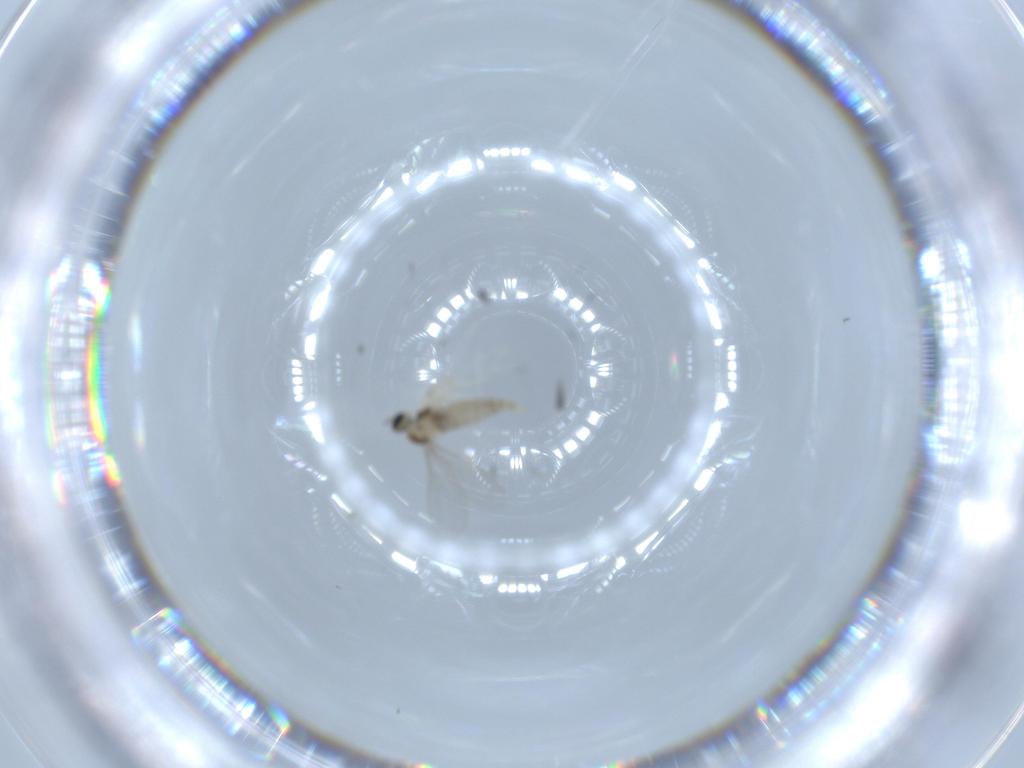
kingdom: Animalia
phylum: Arthropoda
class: Insecta
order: Diptera
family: Cecidomyiidae
